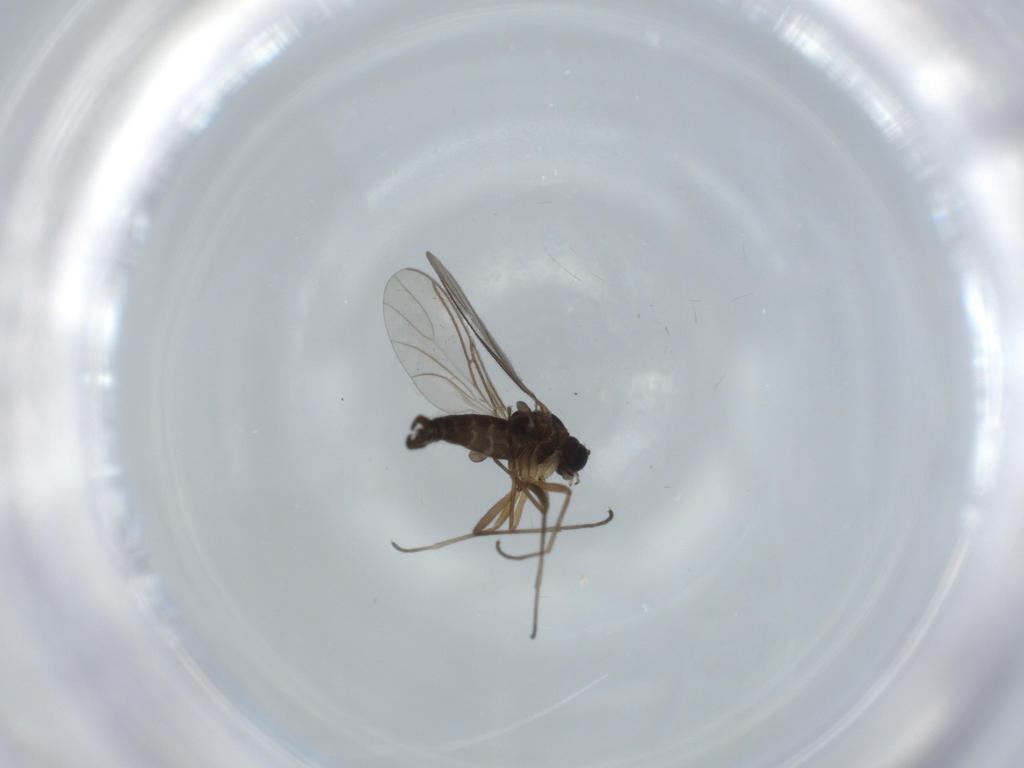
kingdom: Animalia
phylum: Arthropoda
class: Insecta
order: Diptera
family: Sciaridae
